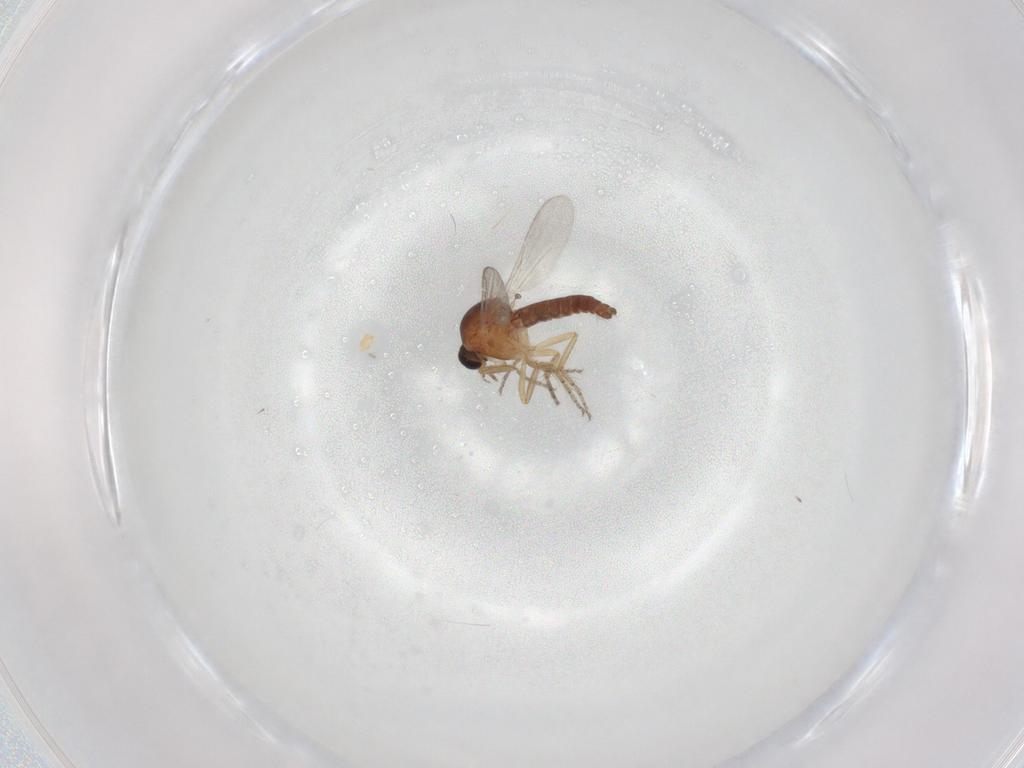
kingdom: Animalia
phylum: Arthropoda
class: Insecta
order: Diptera
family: Ceratopogonidae
